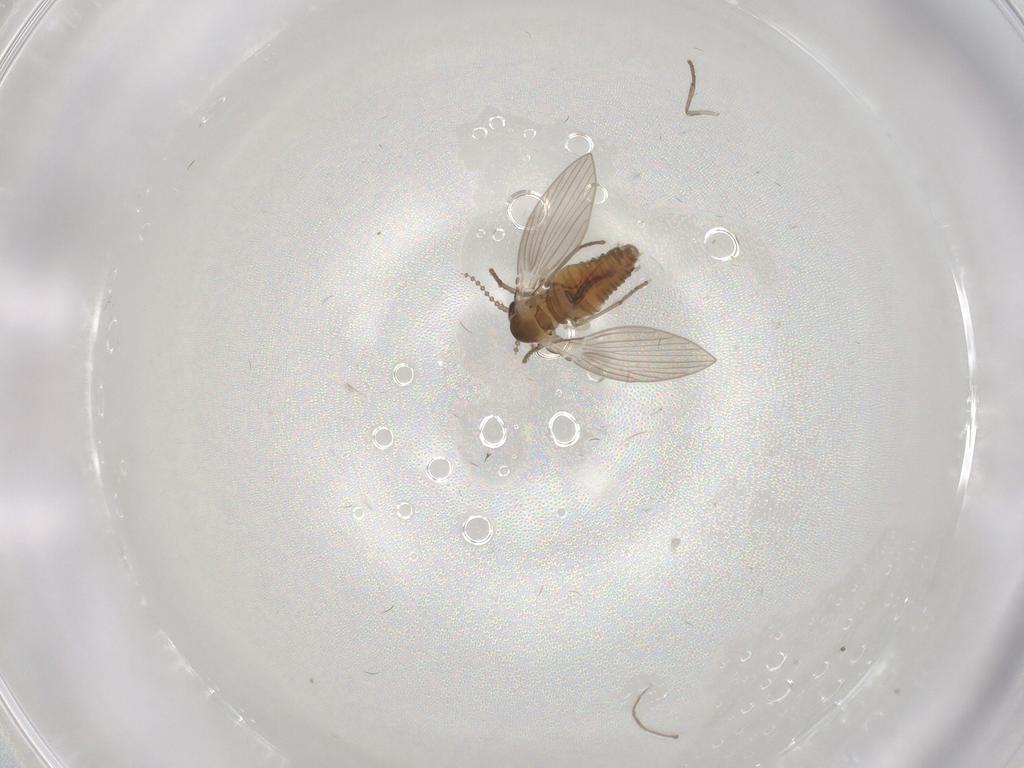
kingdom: Animalia
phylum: Arthropoda
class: Insecta
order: Diptera
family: Psychodidae
